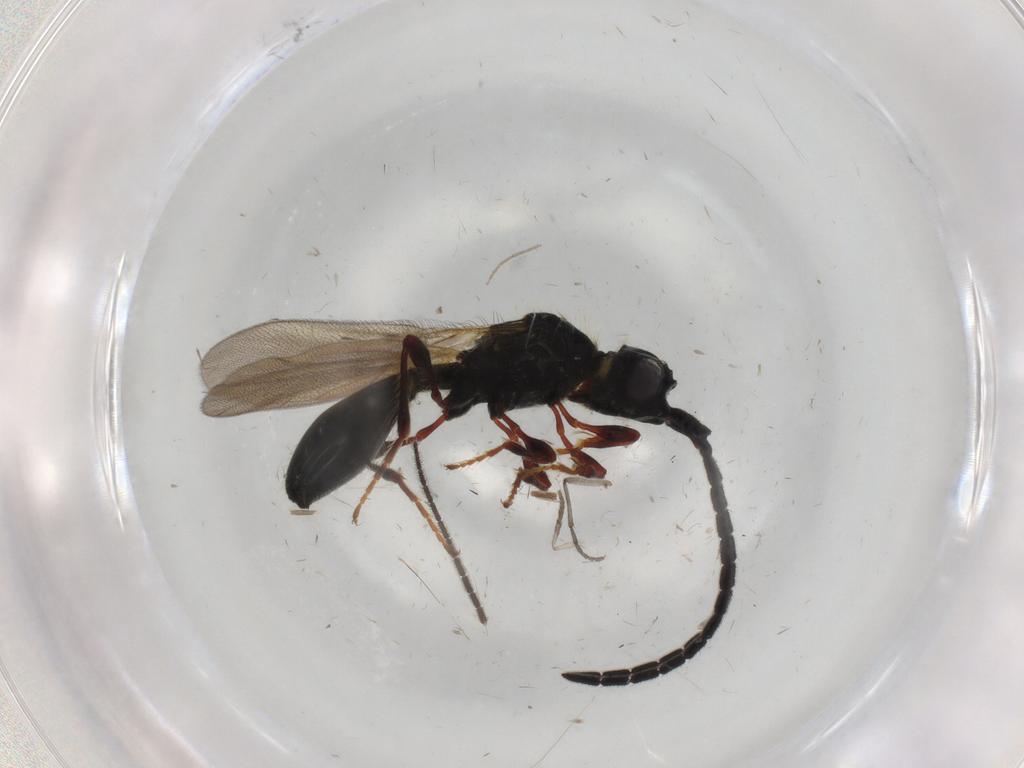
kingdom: Animalia
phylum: Arthropoda
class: Insecta
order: Hymenoptera
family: Diapriidae
